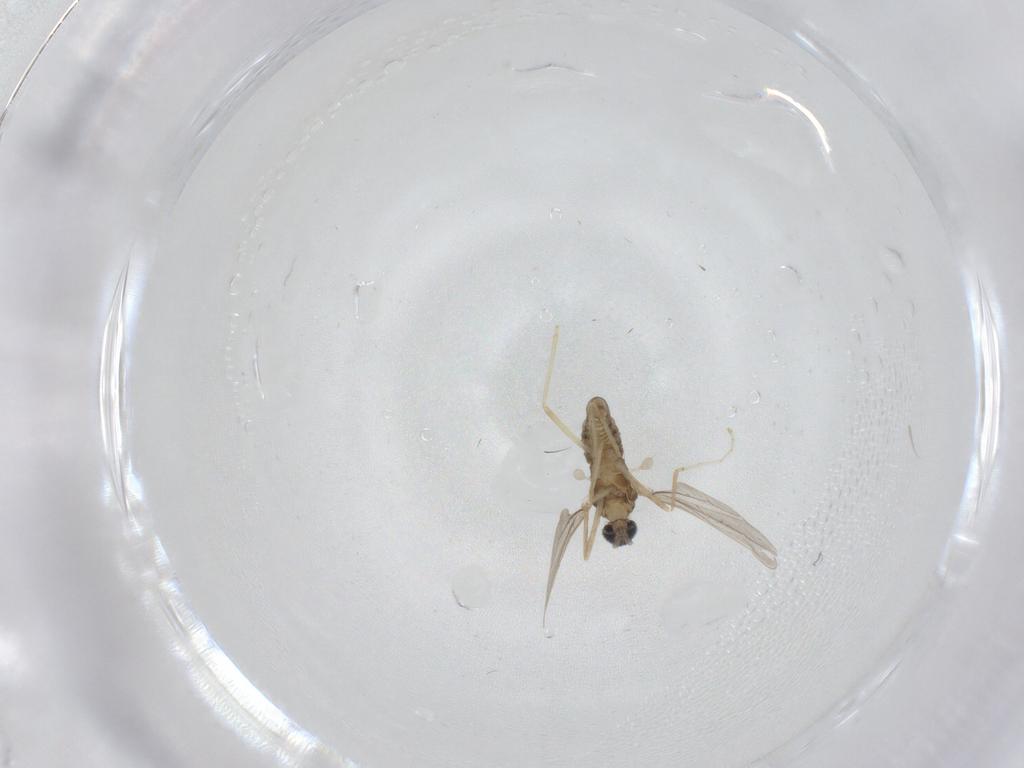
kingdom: Animalia
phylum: Arthropoda
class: Insecta
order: Diptera
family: Cecidomyiidae
